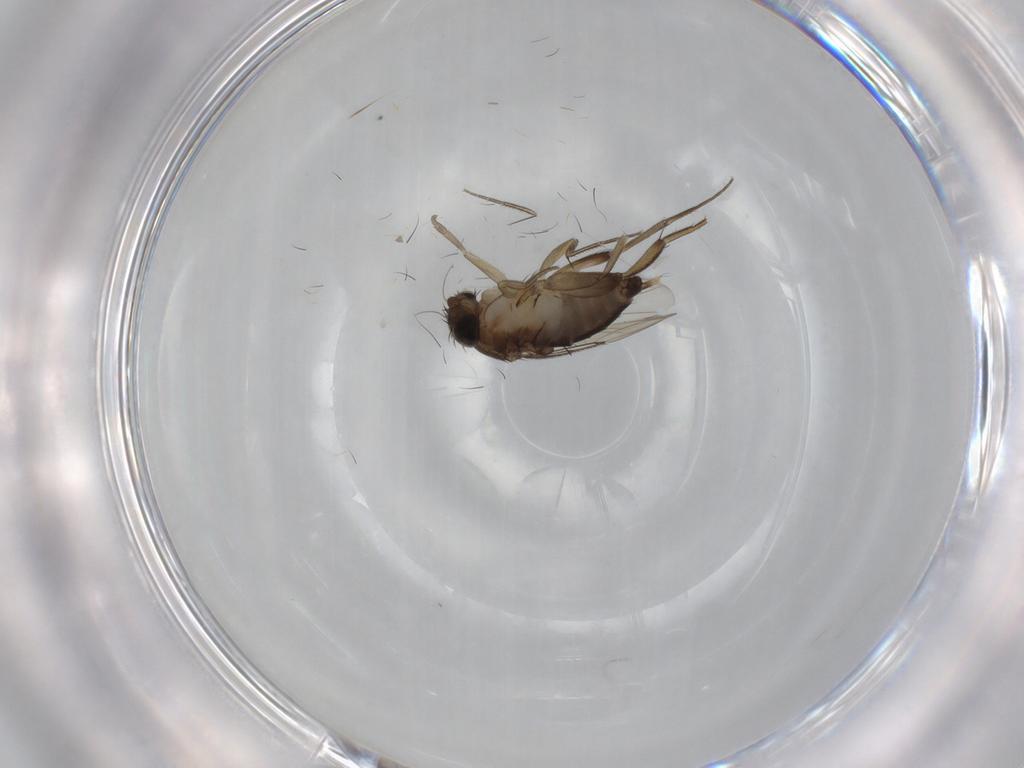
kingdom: Animalia
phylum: Arthropoda
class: Insecta
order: Diptera
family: Phoridae
